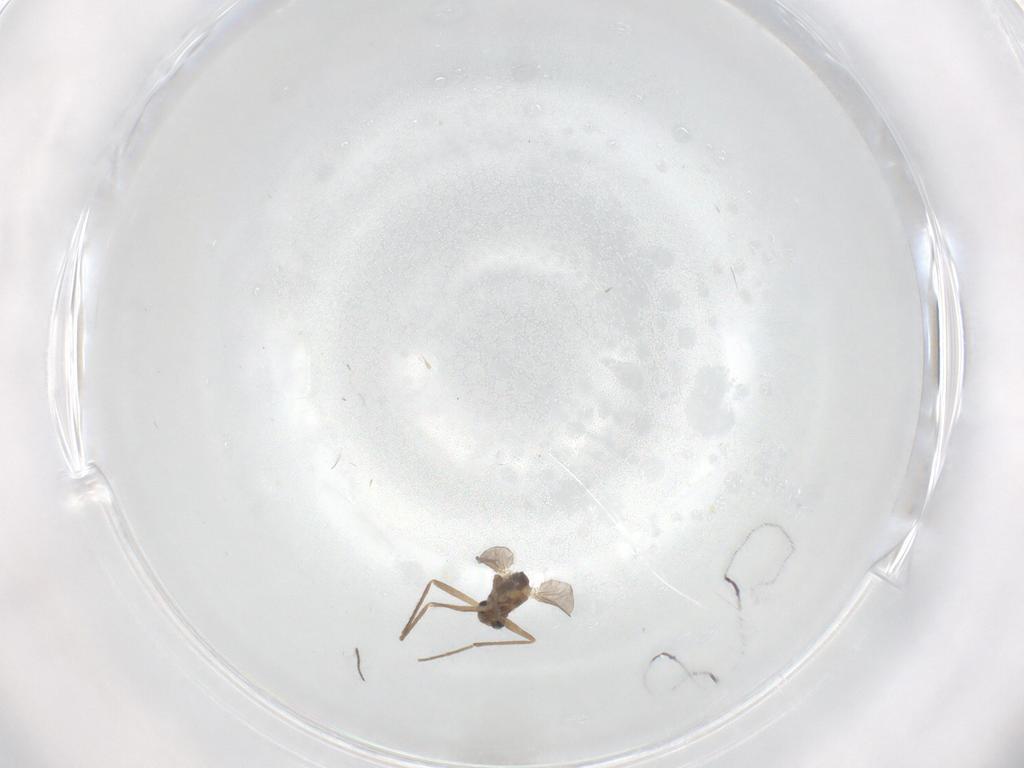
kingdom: Animalia
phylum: Arthropoda
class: Insecta
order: Diptera
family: Chironomidae
